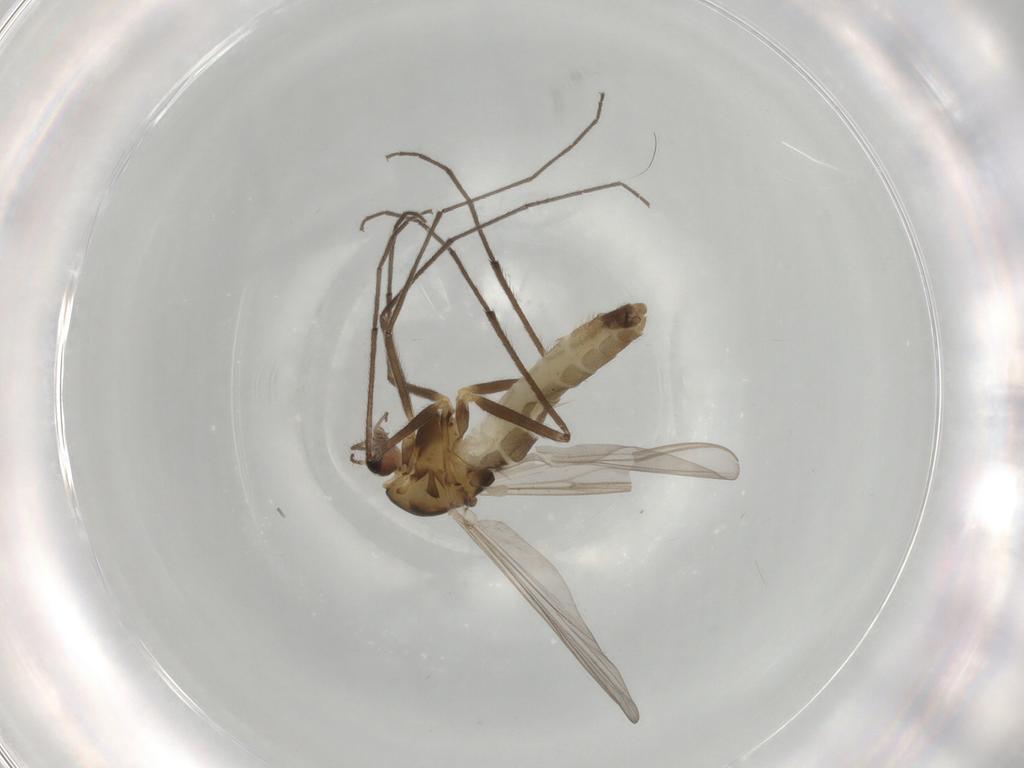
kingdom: Animalia
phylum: Arthropoda
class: Insecta
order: Diptera
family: Chironomidae
